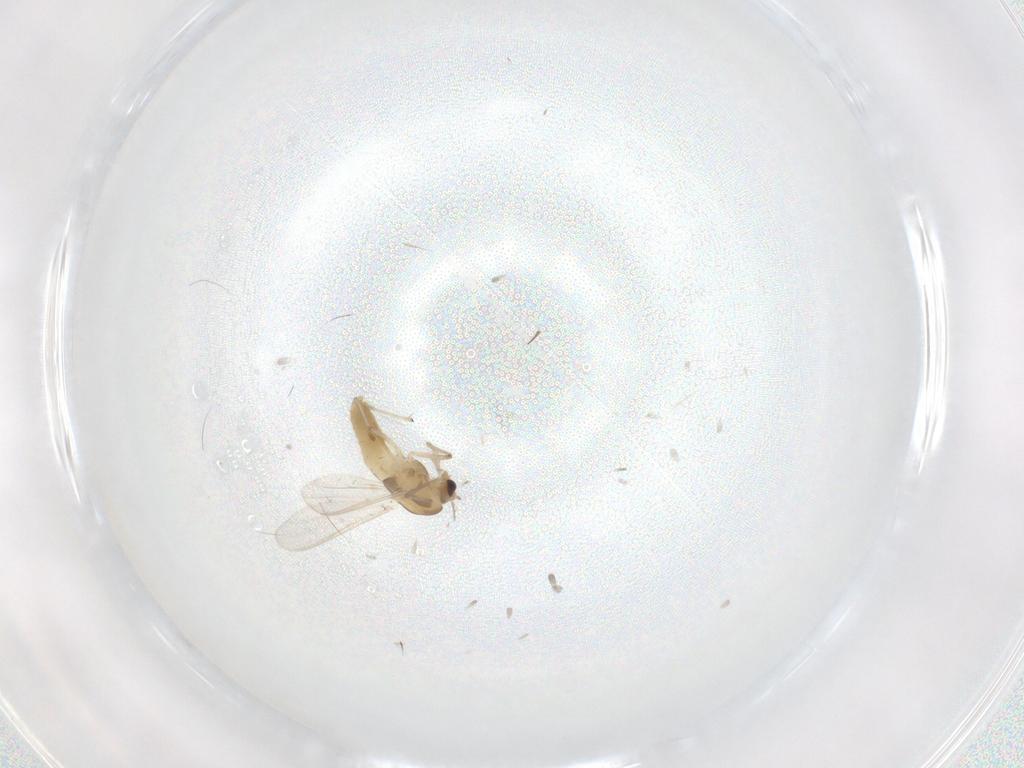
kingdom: Animalia
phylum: Arthropoda
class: Insecta
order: Diptera
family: Chironomidae
